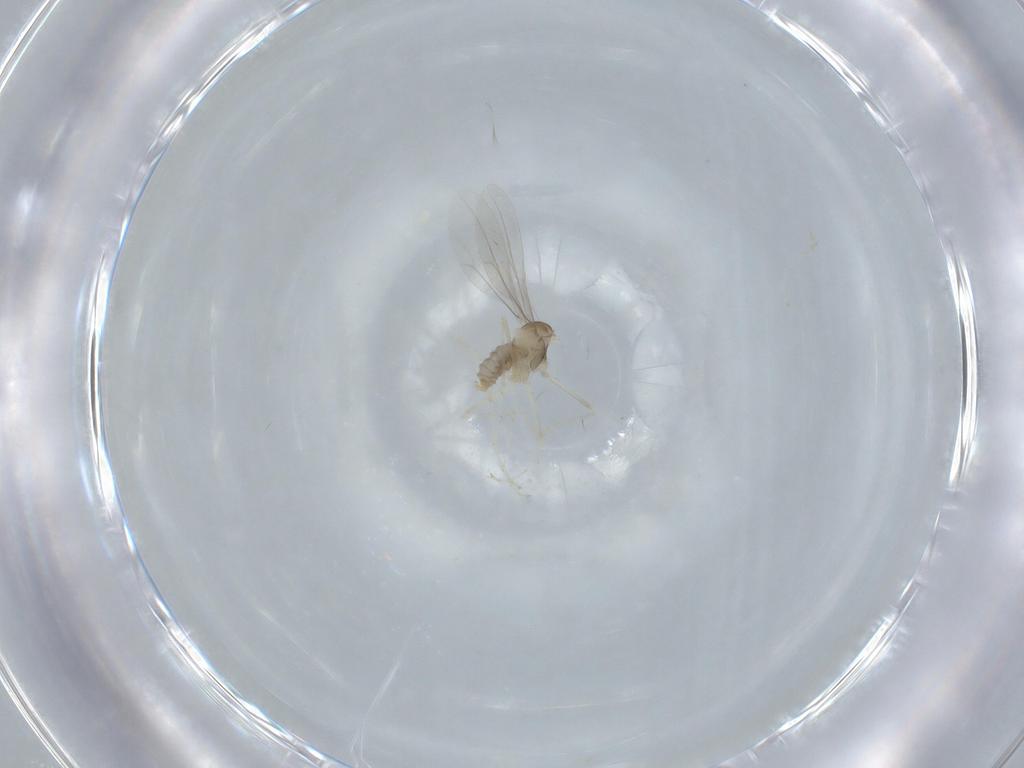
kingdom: Animalia
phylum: Arthropoda
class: Insecta
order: Diptera
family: Cecidomyiidae
